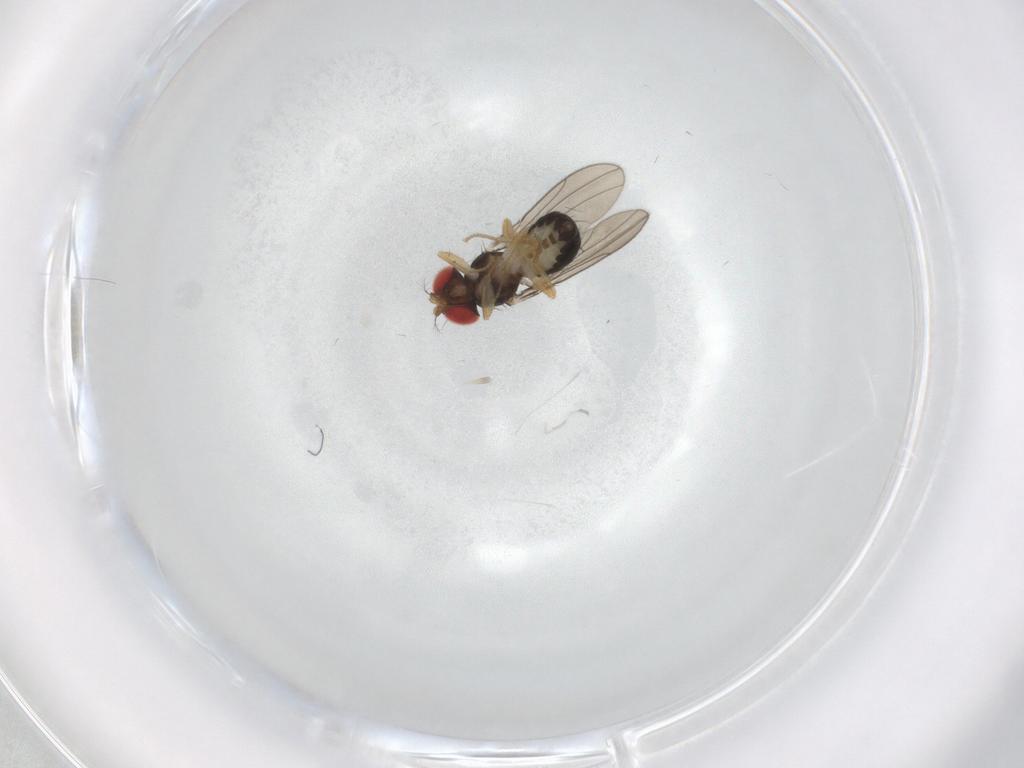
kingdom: Animalia
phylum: Arthropoda
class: Insecta
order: Diptera
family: Drosophilidae
